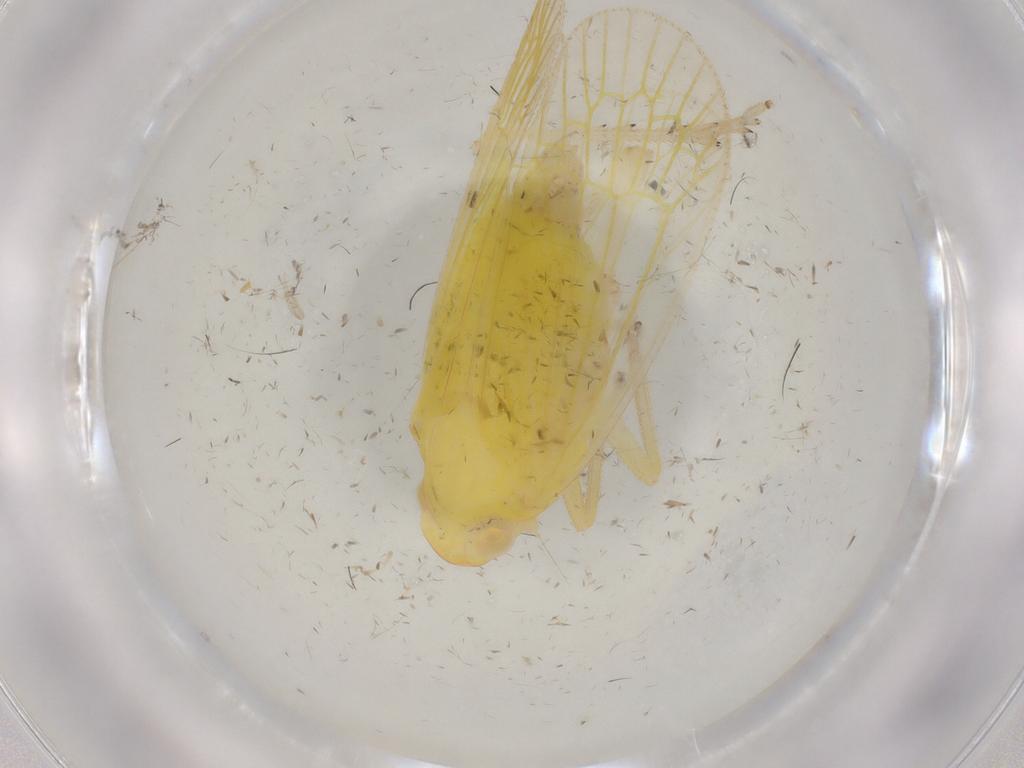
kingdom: Animalia
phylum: Arthropoda
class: Insecta
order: Hemiptera
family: Tropiduchidae
